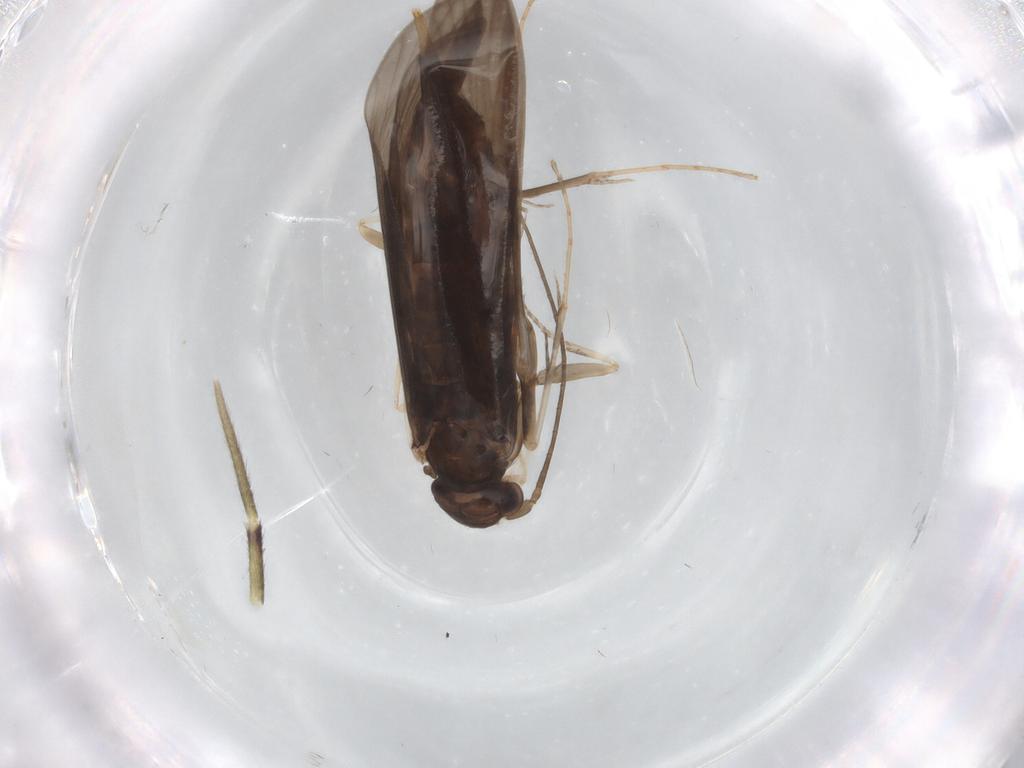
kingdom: Animalia
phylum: Arthropoda
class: Insecta
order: Trichoptera
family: Xiphocentronidae
